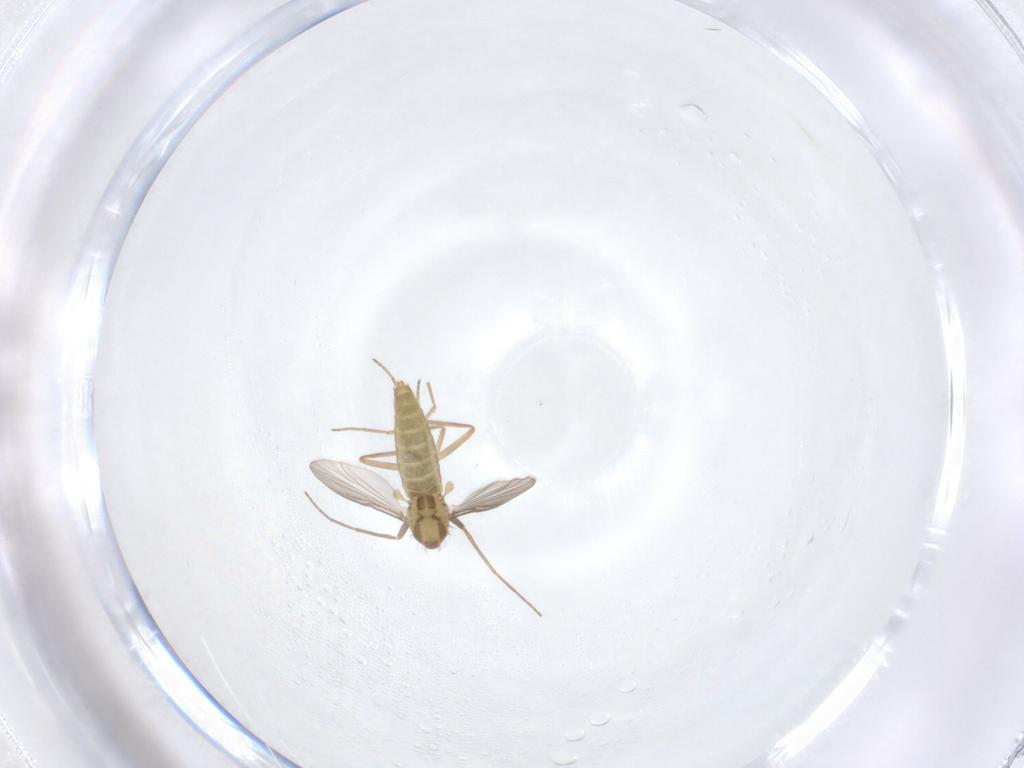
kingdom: Animalia
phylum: Arthropoda
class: Insecta
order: Diptera
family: Chironomidae
